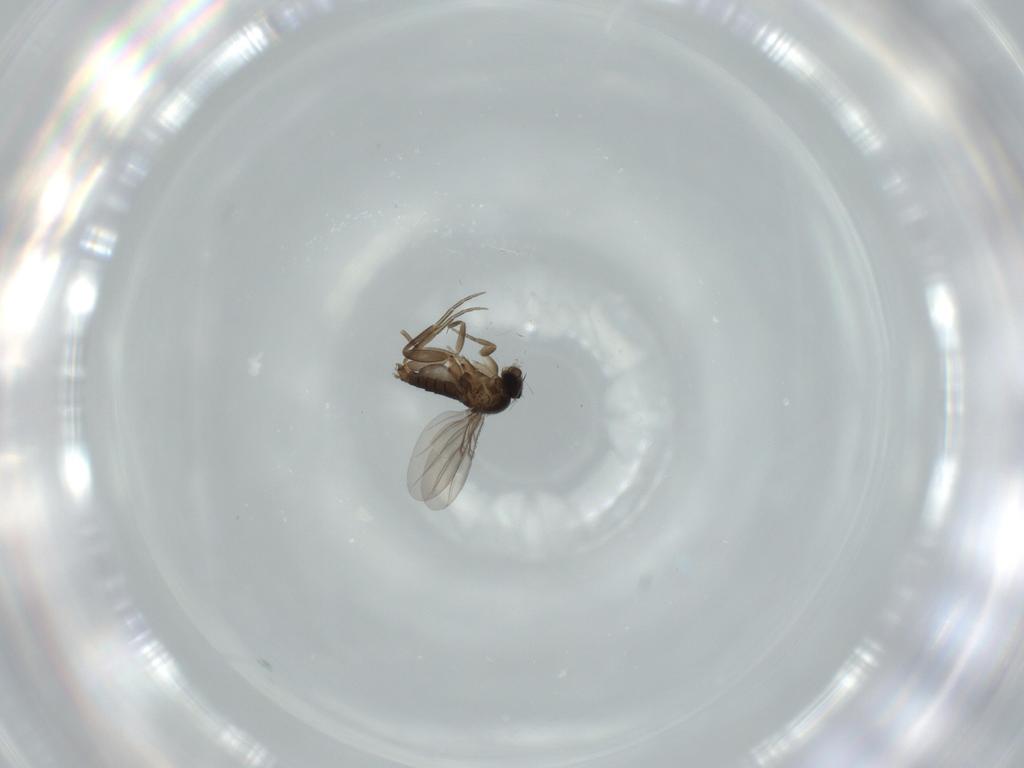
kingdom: Animalia
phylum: Arthropoda
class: Insecta
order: Diptera
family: Phoridae
